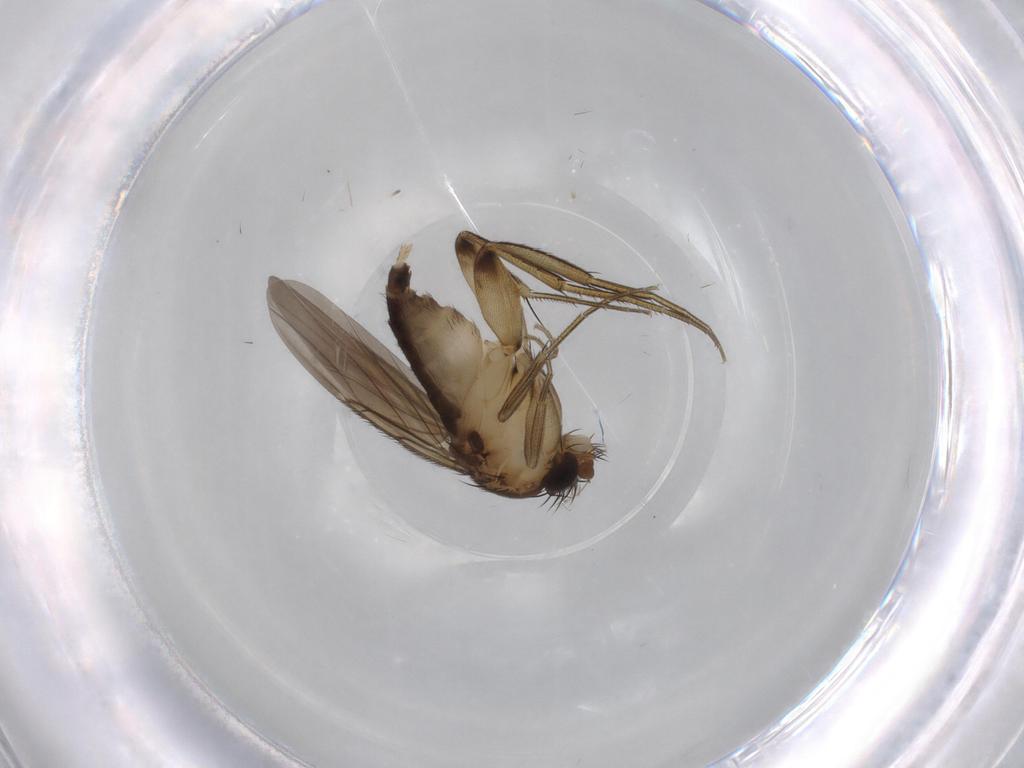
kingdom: Animalia
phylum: Arthropoda
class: Insecta
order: Diptera
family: Phoridae
